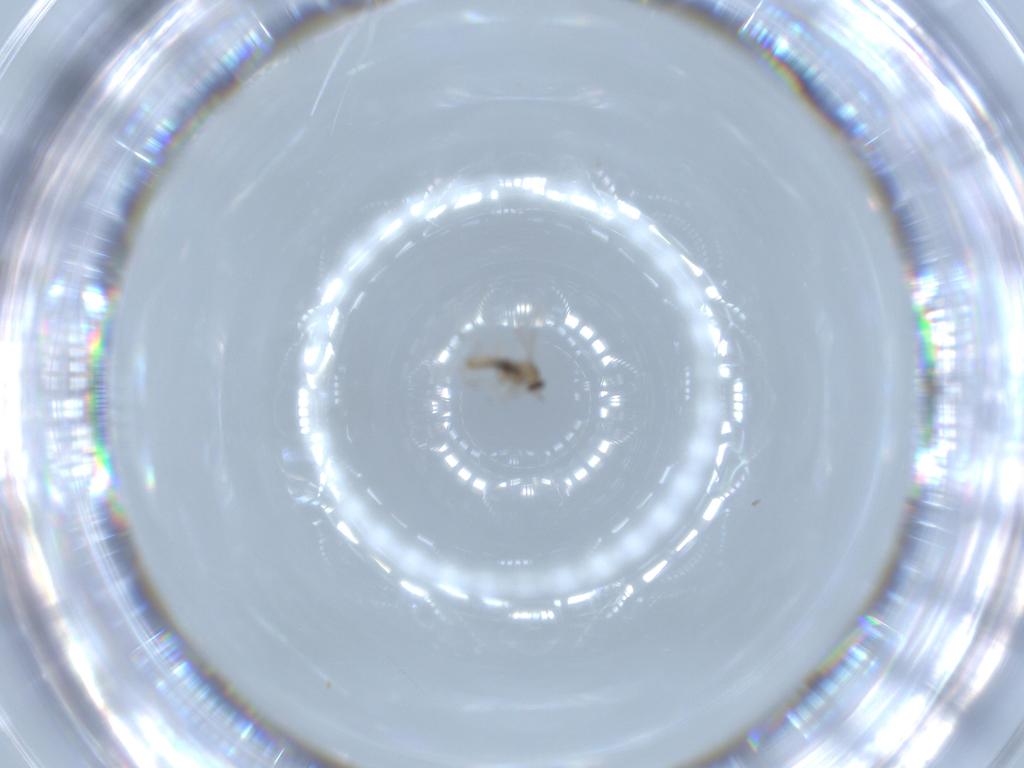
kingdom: Animalia
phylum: Arthropoda
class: Insecta
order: Diptera
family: Cecidomyiidae
